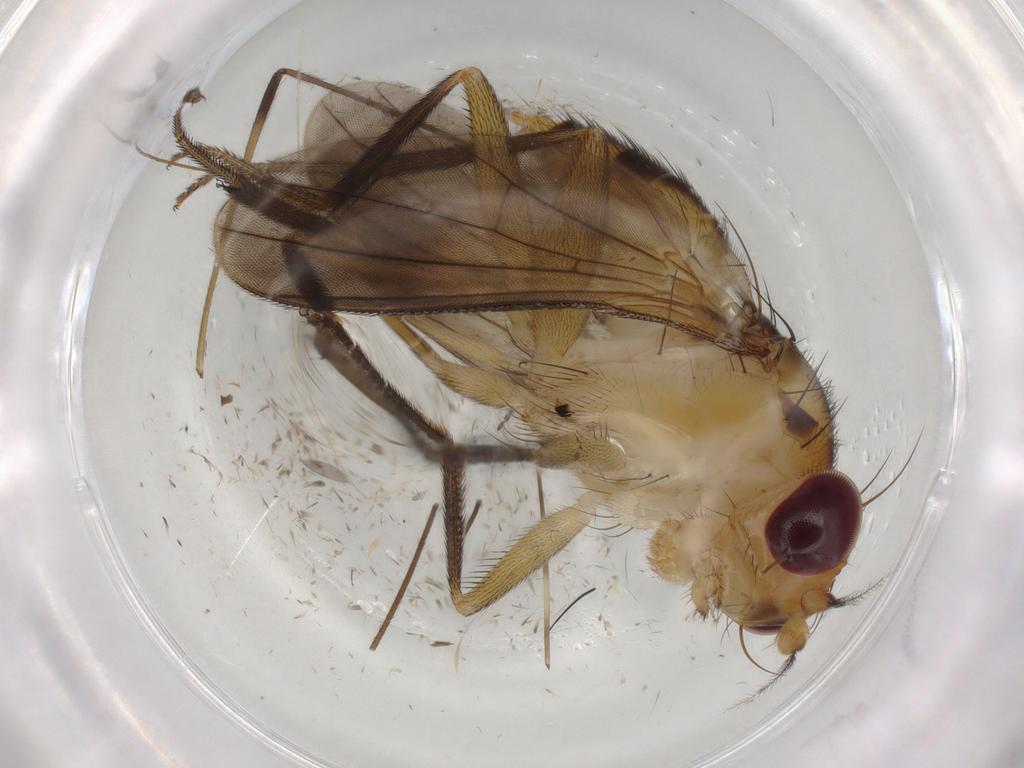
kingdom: Animalia
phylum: Arthropoda
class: Insecta
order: Diptera
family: Clusiidae
